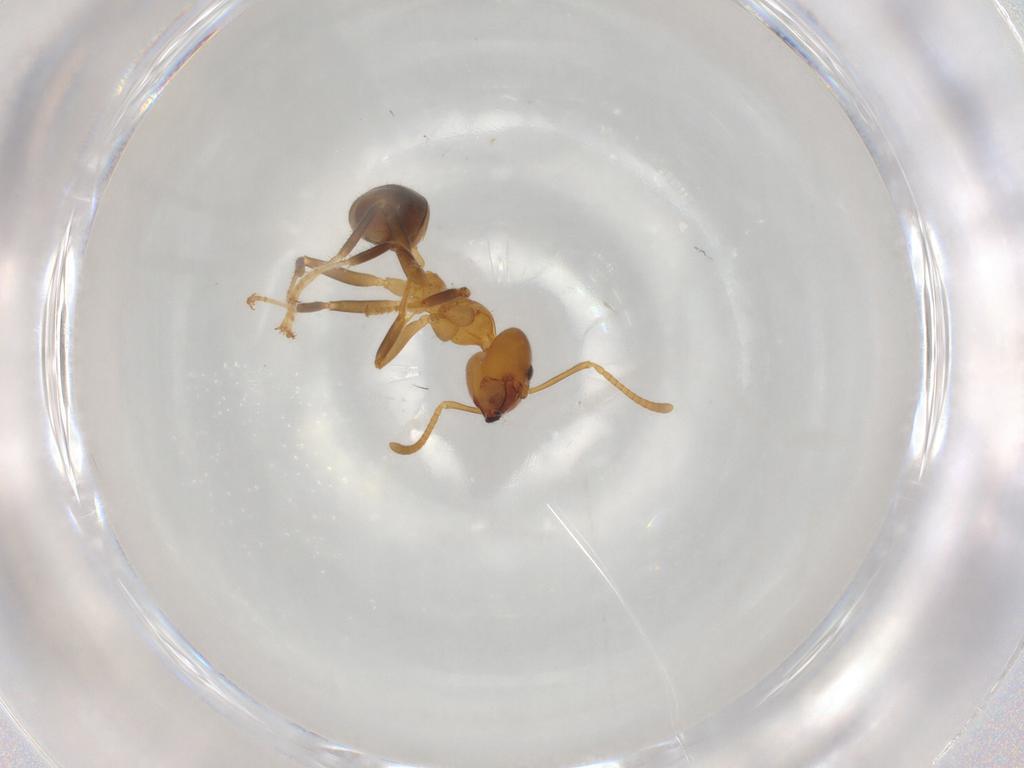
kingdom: Animalia
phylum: Arthropoda
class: Insecta
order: Hymenoptera
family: Formicidae
